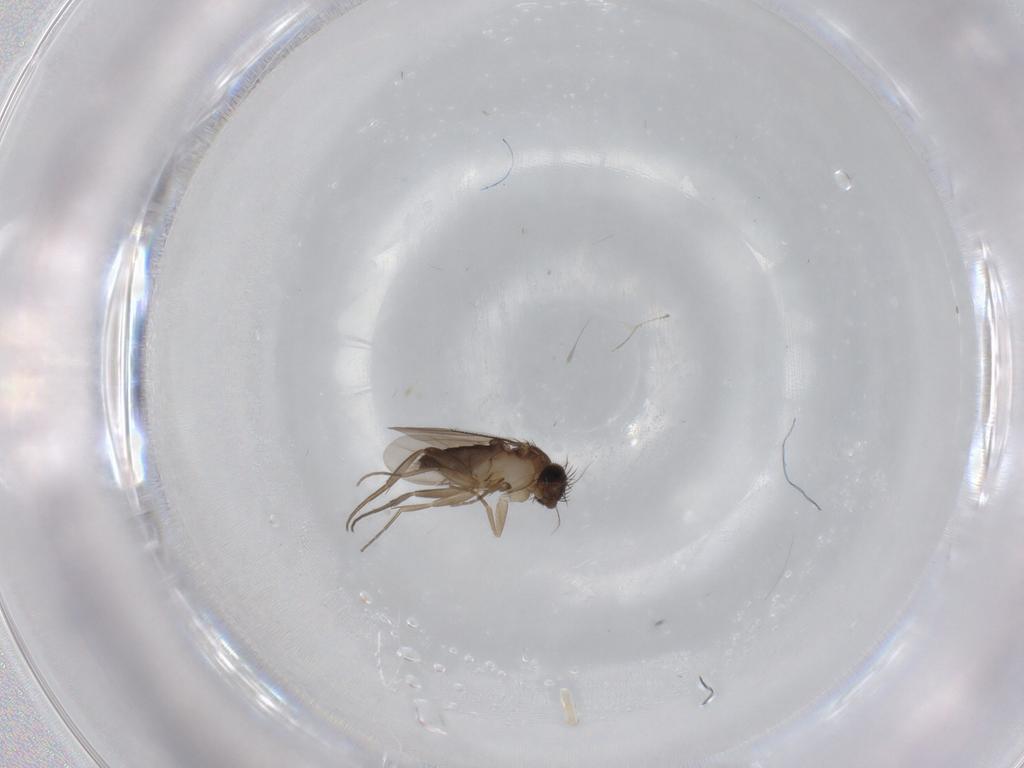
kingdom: Animalia
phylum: Arthropoda
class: Insecta
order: Diptera
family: Phoridae
